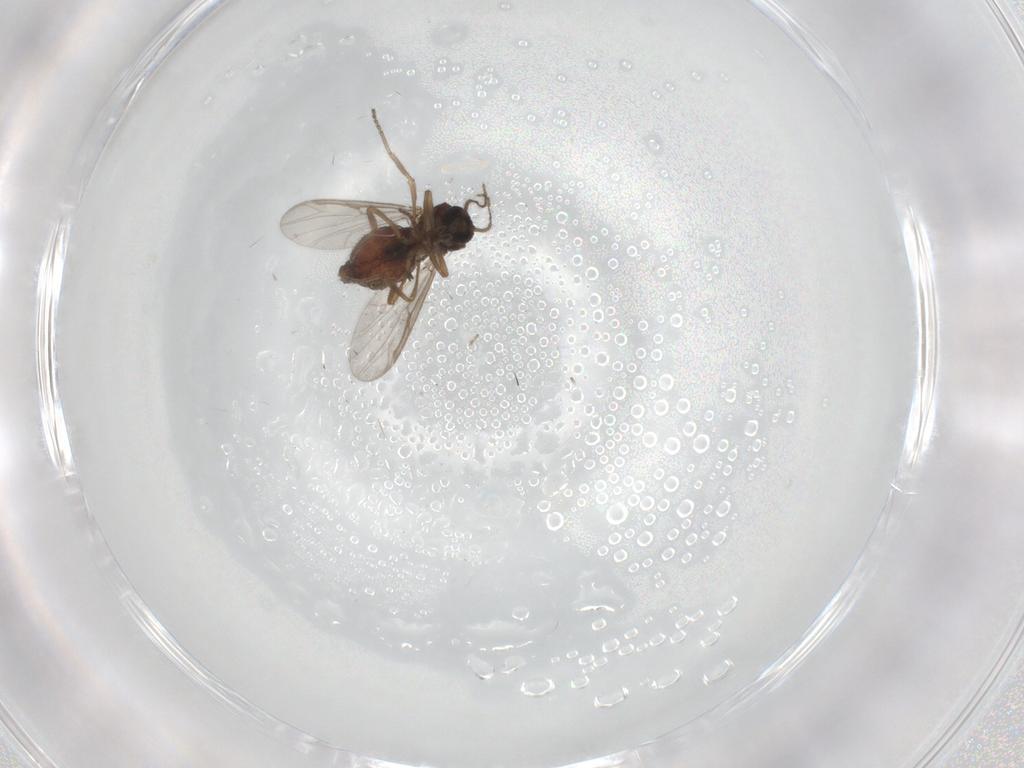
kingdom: Animalia
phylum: Arthropoda
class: Insecta
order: Diptera
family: Ceratopogonidae
